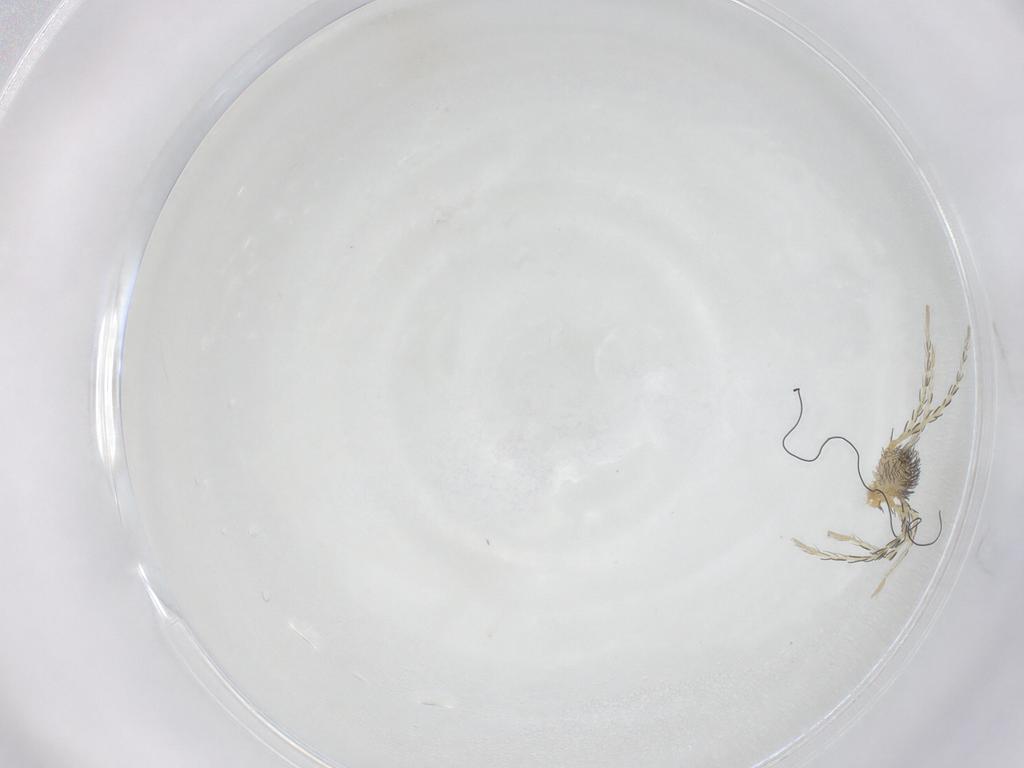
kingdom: Animalia
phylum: Arthropoda
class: Arachnida
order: Trombidiformes
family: Erythraeidae
